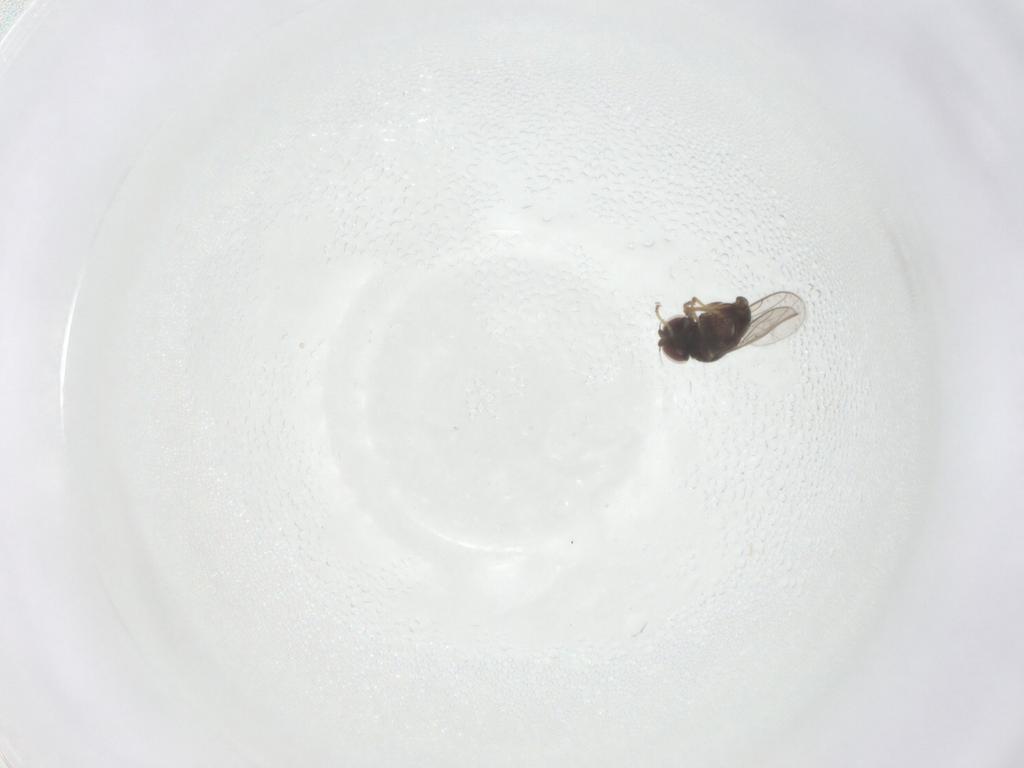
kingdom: Animalia
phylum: Arthropoda
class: Insecta
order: Diptera
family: Chloropidae
